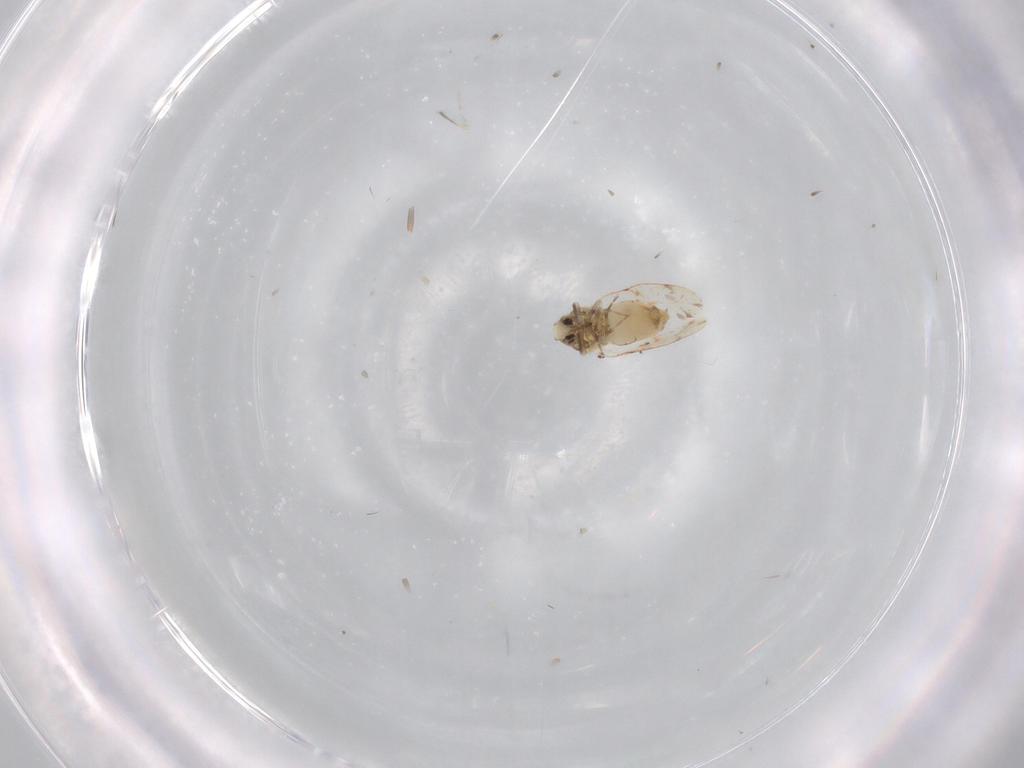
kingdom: Animalia
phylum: Arthropoda
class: Insecta
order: Hemiptera
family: Aleyrodidae
